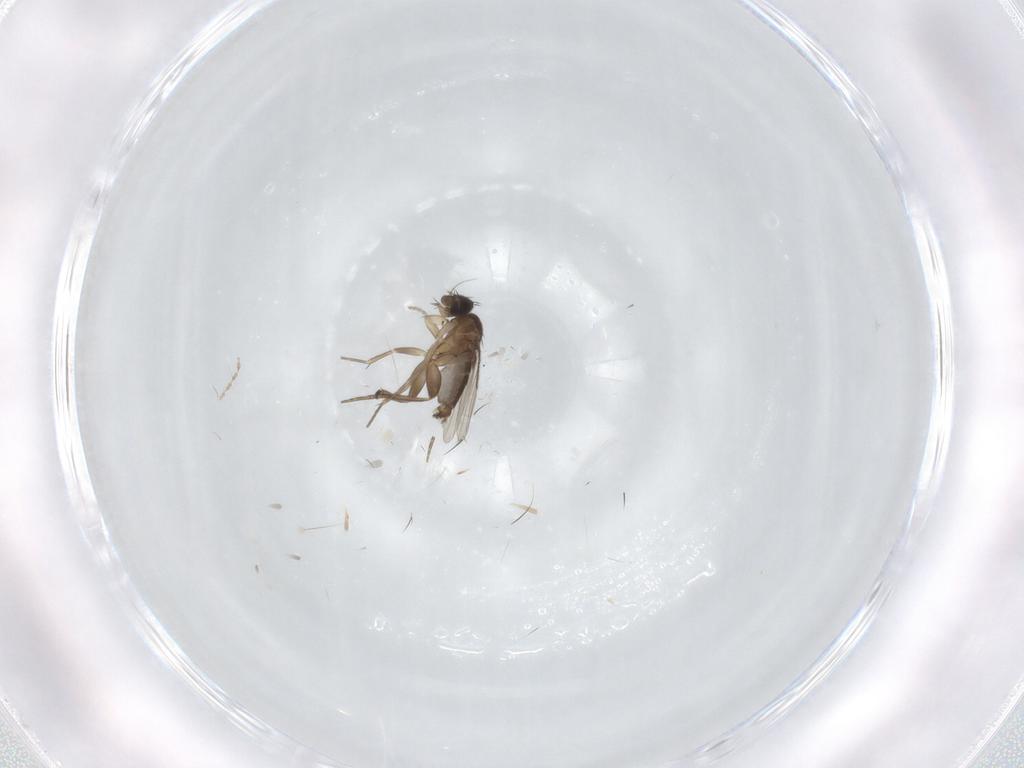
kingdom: Animalia
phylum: Arthropoda
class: Insecta
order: Diptera
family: Phoridae
